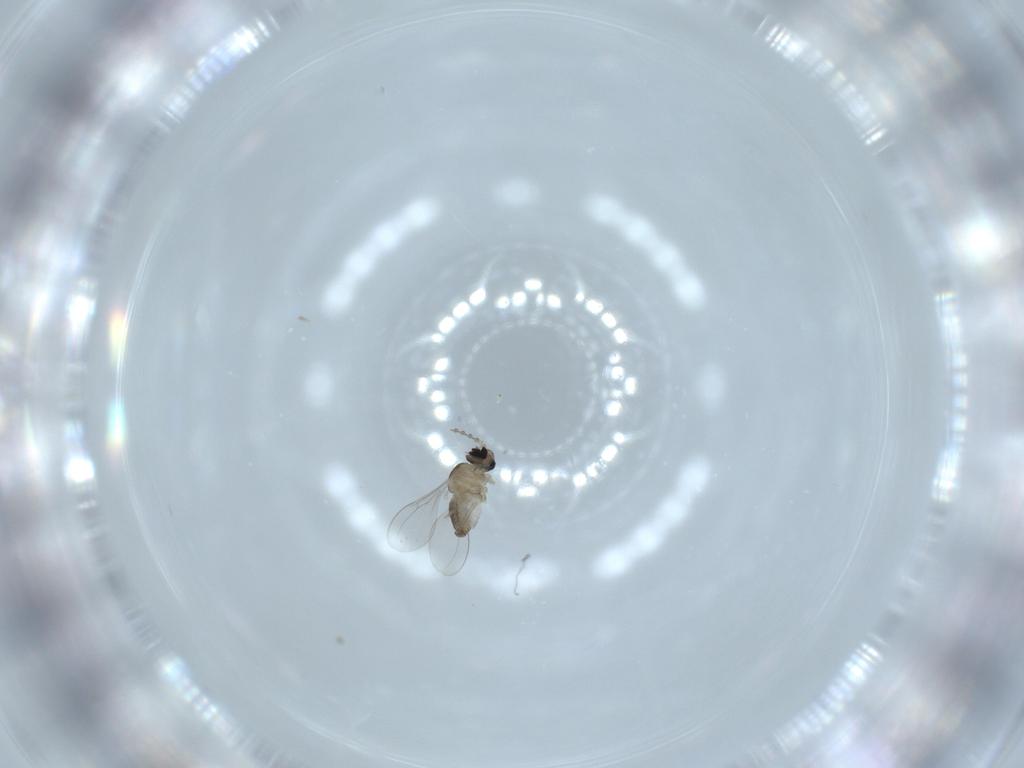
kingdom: Animalia
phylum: Arthropoda
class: Insecta
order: Diptera
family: Cecidomyiidae
